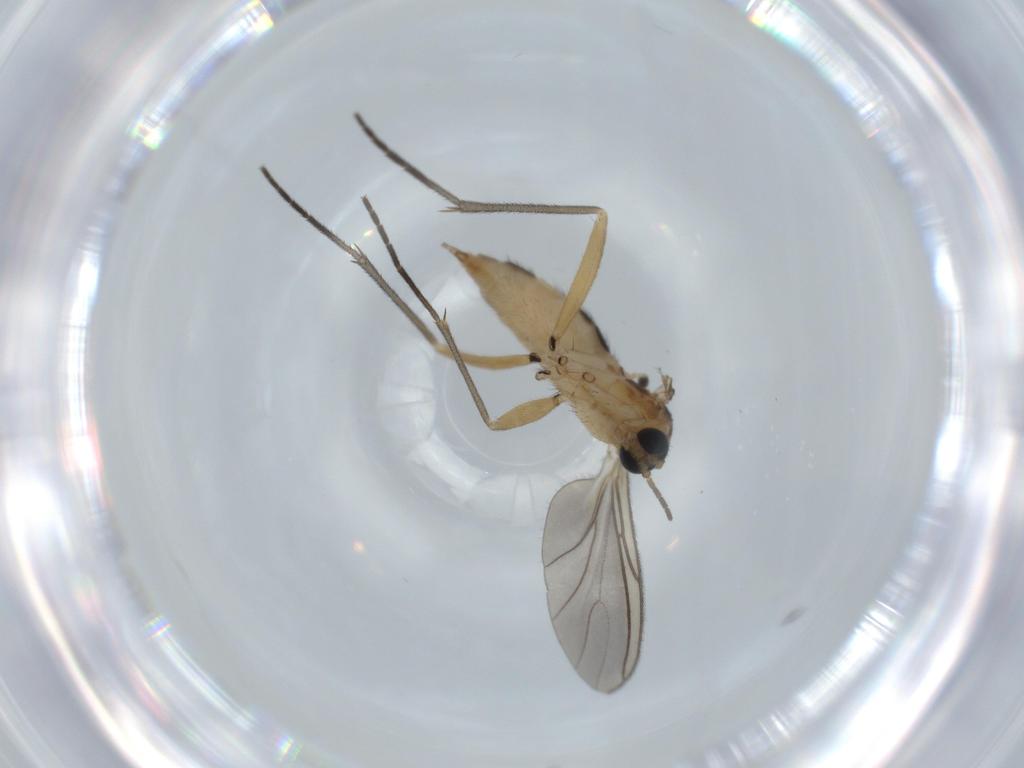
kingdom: Animalia
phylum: Arthropoda
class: Insecta
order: Diptera
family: Sciaridae
